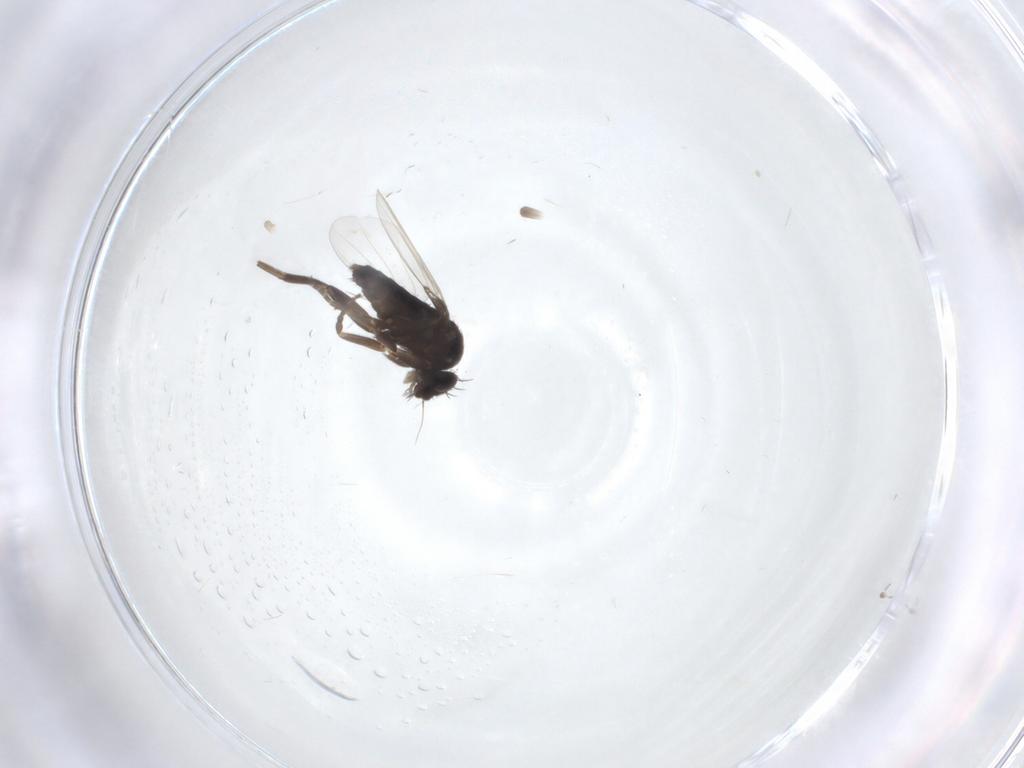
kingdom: Animalia
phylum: Arthropoda
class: Insecta
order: Diptera
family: Phoridae
